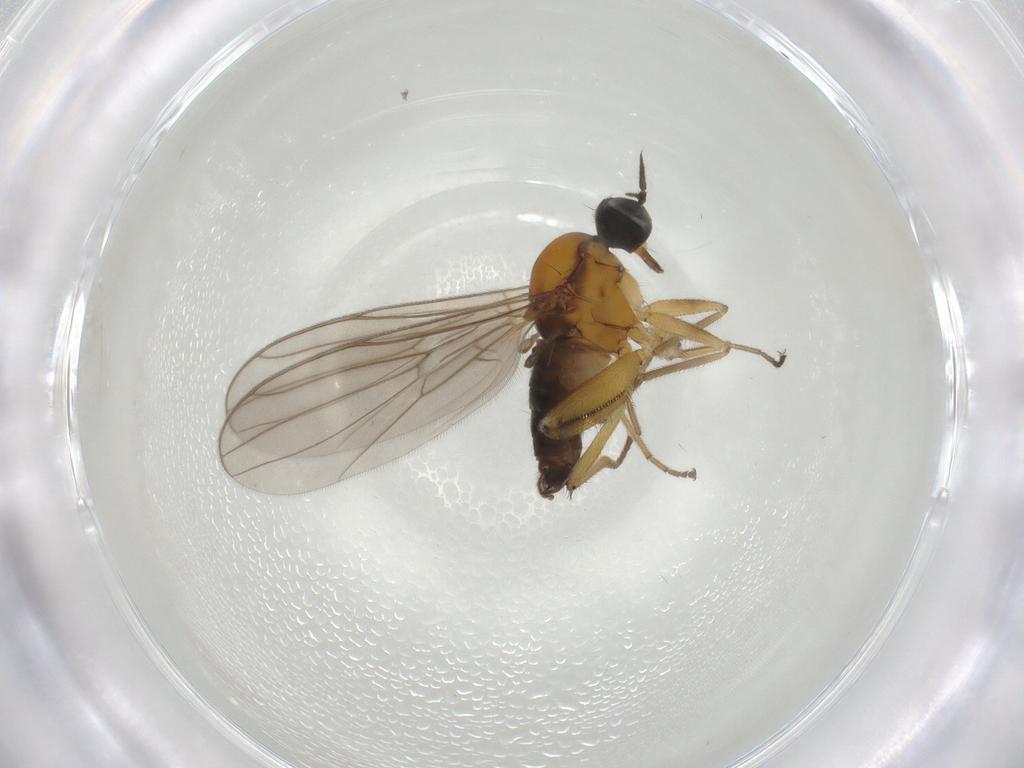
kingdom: Animalia
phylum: Arthropoda
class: Insecta
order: Diptera
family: Hybotidae
